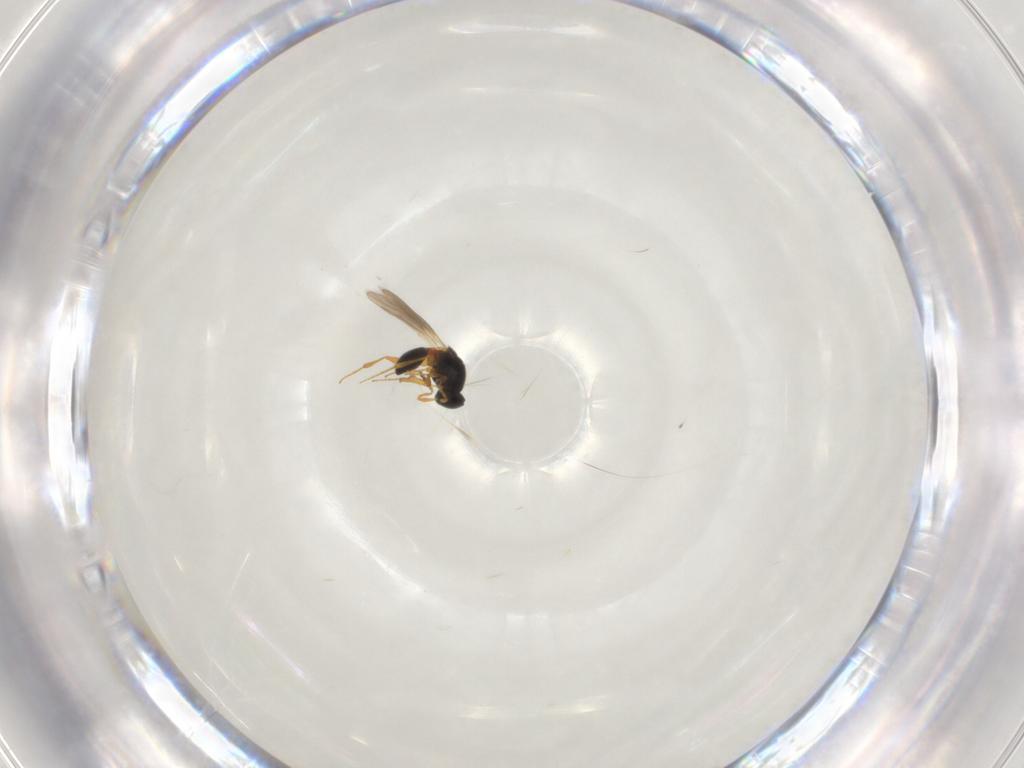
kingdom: Animalia
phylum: Arthropoda
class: Insecta
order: Hymenoptera
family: Platygastridae
